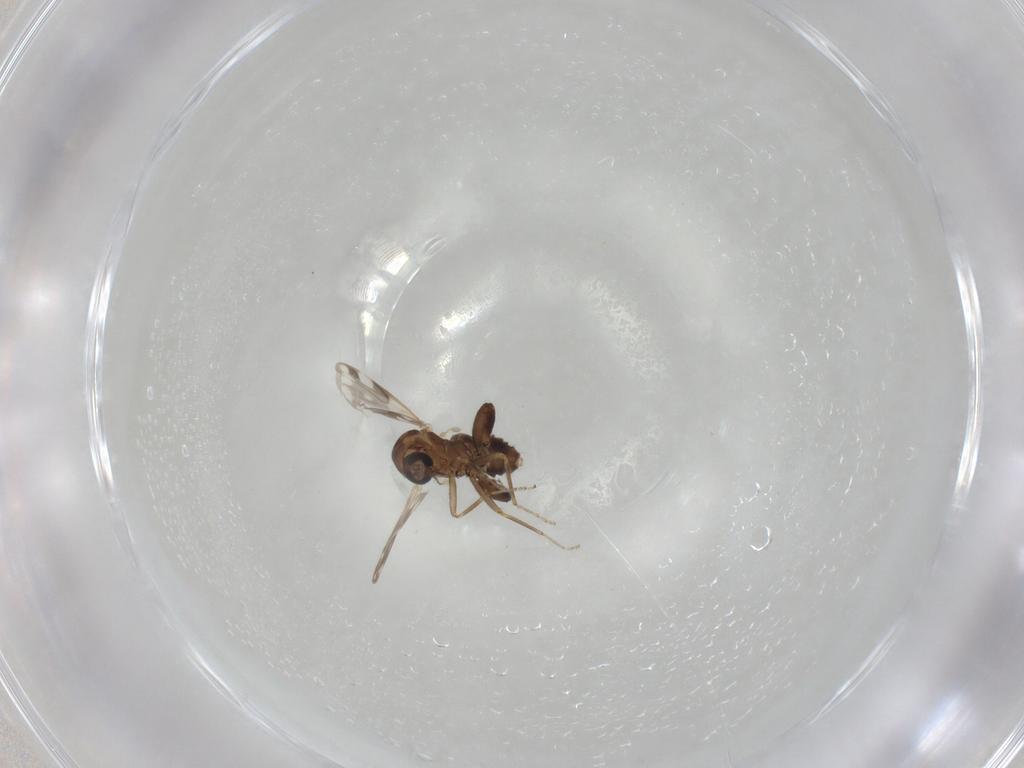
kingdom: Animalia
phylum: Arthropoda
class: Insecta
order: Diptera
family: Ceratopogonidae
